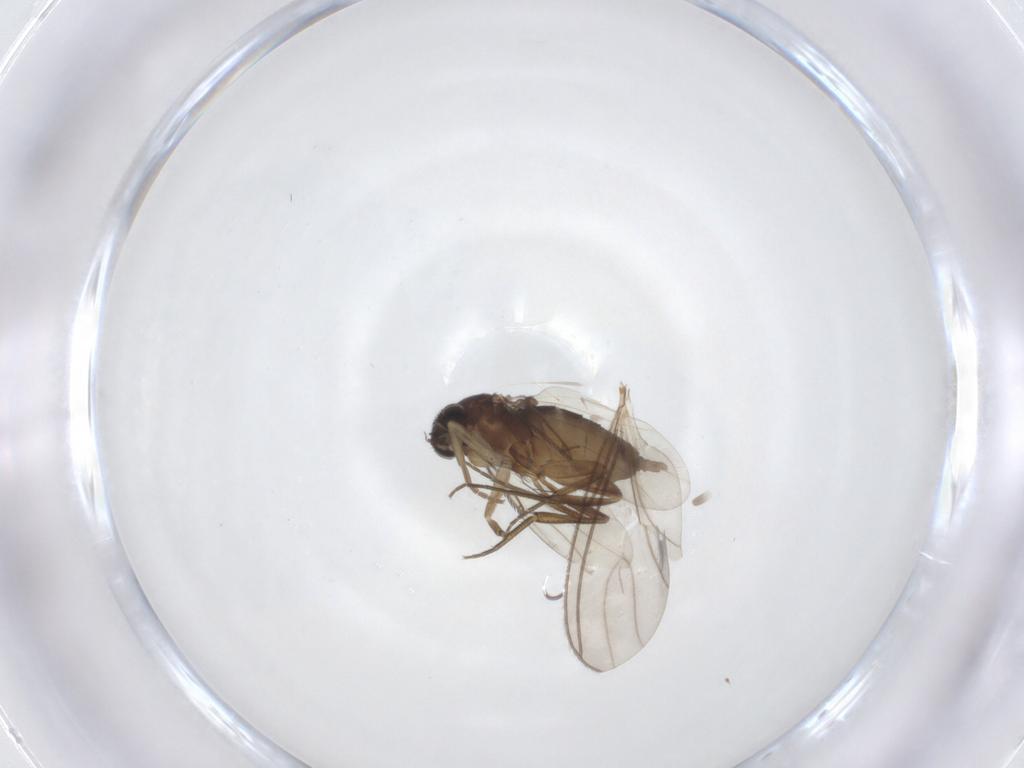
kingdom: Animalia
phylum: Arthropoda
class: Insecta
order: Diptera
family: Phoridae
